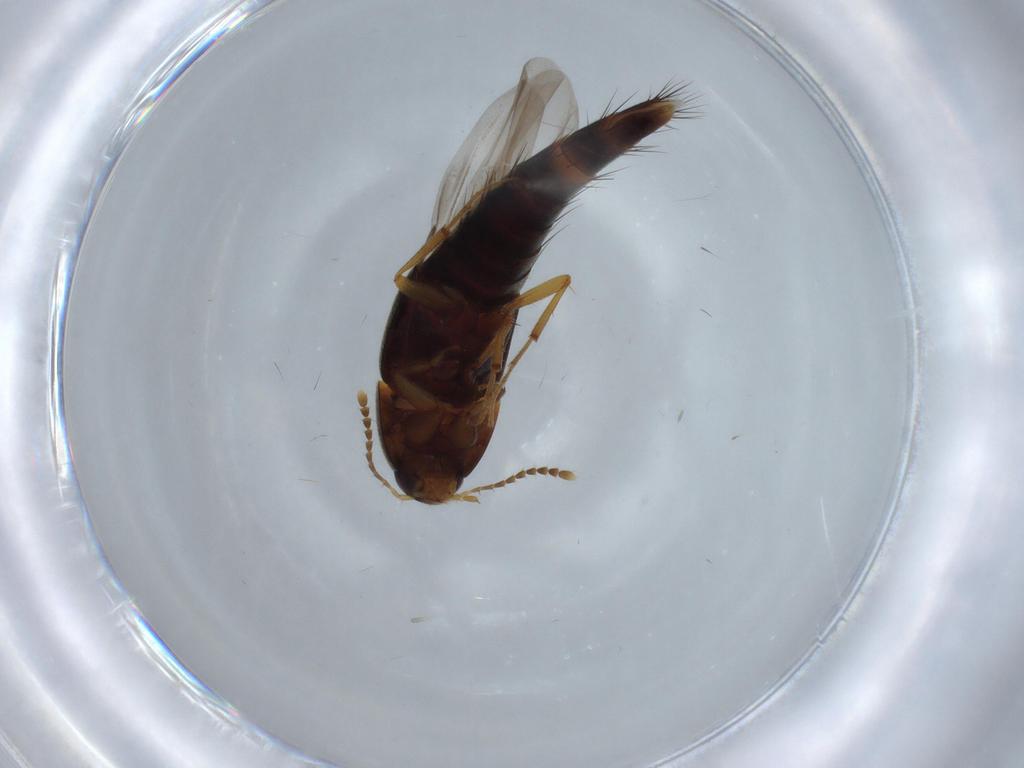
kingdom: Animalia
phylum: Arthropoda
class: Insecta
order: Coleoptera
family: Staphylinidae
